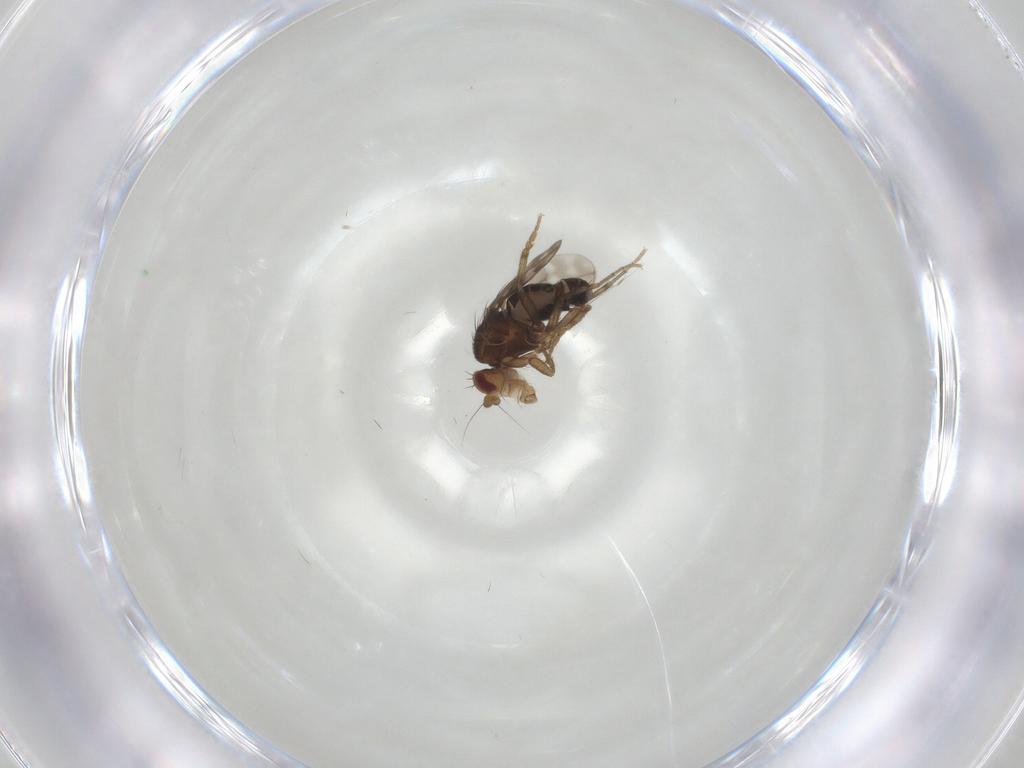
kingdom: Animalia
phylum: Arthropoda
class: Insecta
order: Diptera
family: Sphaeroceridae
